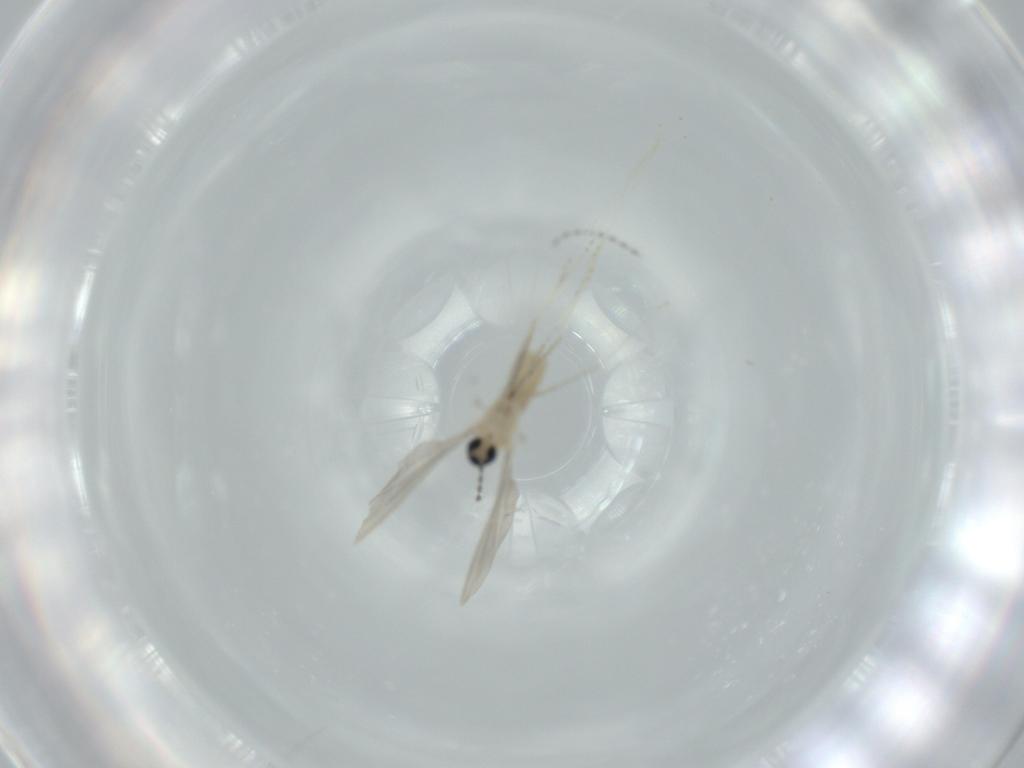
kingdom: Animalia
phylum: Arthropoda
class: Insecta
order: Diptera
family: Cecidomyiidae
